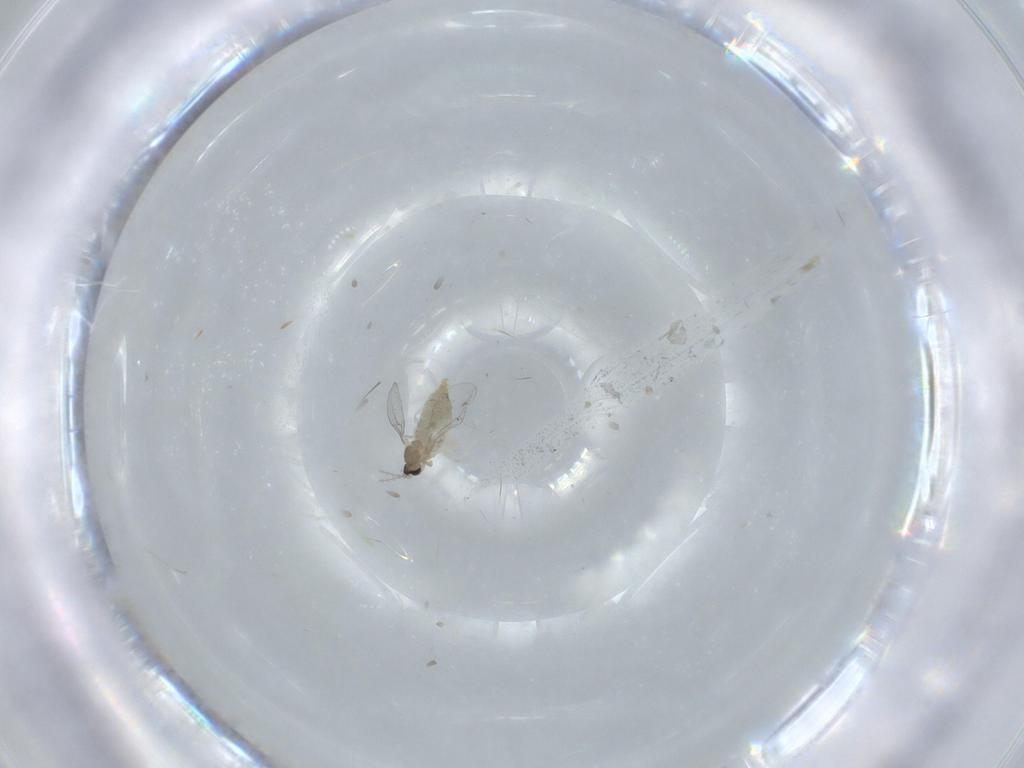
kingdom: Animalia
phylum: Arthropoda
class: Insecta
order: Diptera
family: Cecidomyiidae
